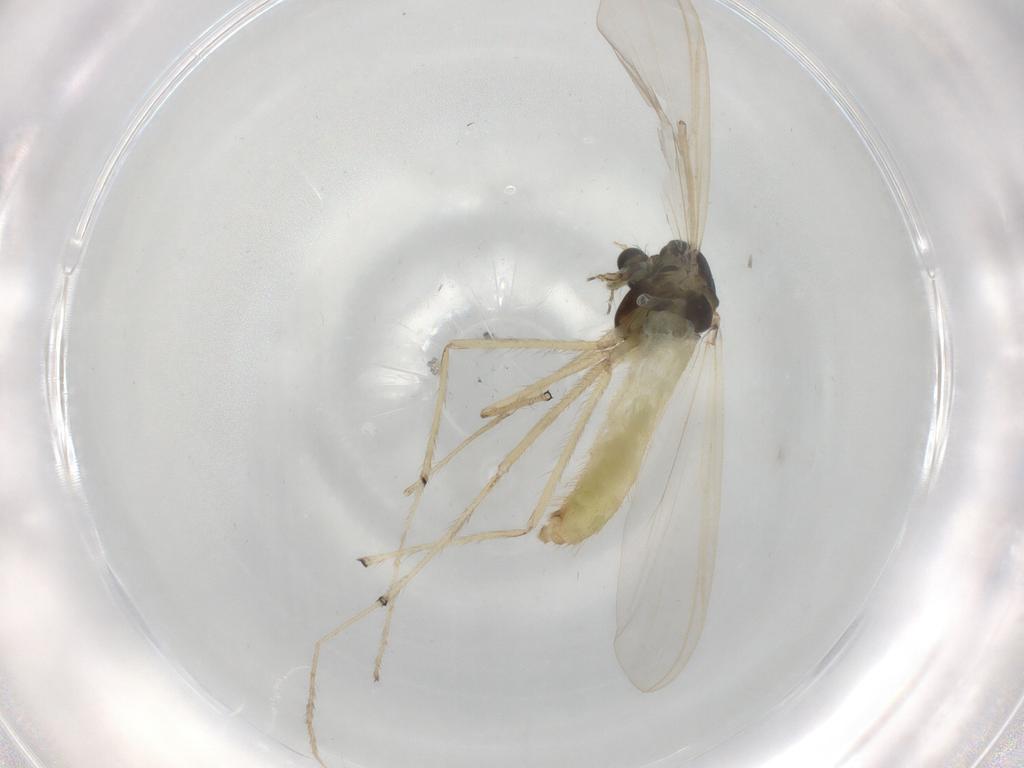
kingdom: Animalia
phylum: Arthropoda
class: Insecta
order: Diptera
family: Chironomidae
